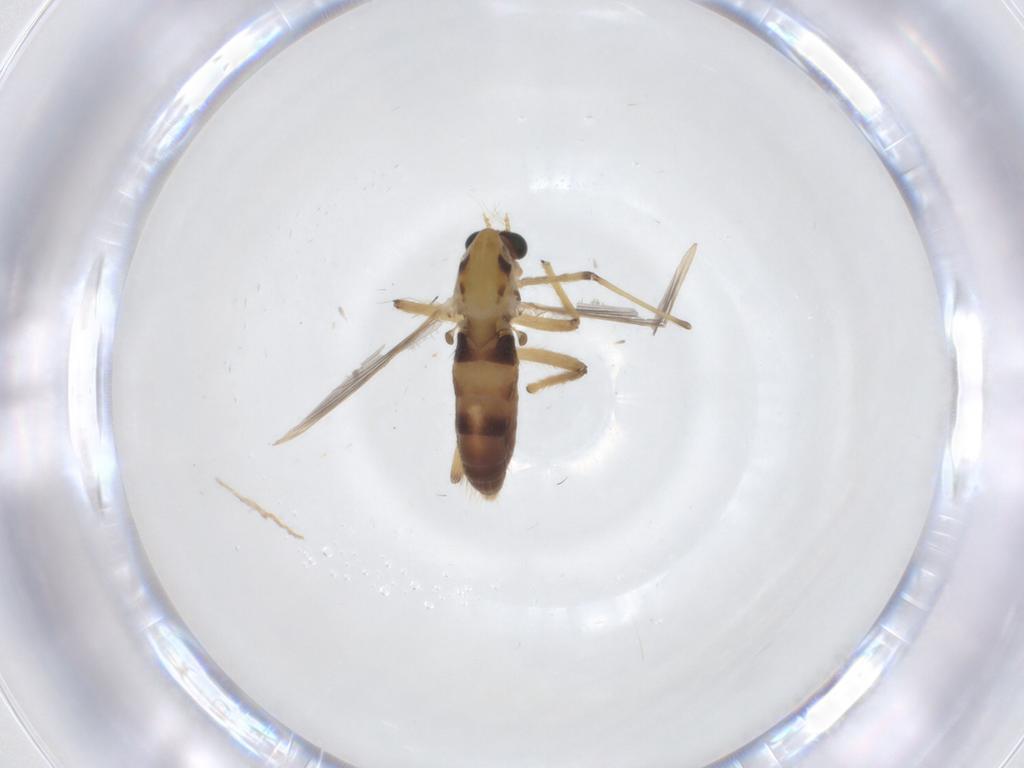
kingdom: Animalia
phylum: Arthropoda
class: Insecta
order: Diptera
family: Chironomidae
